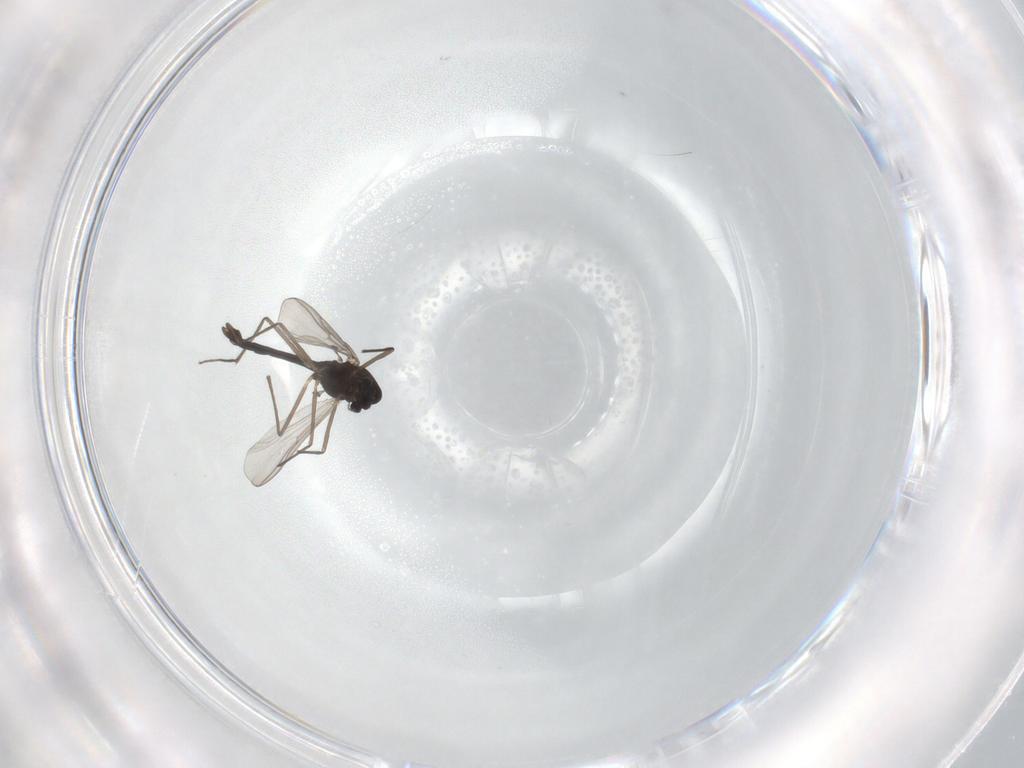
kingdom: Animalia
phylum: Arthropoda
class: Insecta
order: Diptera
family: Chironomidae
